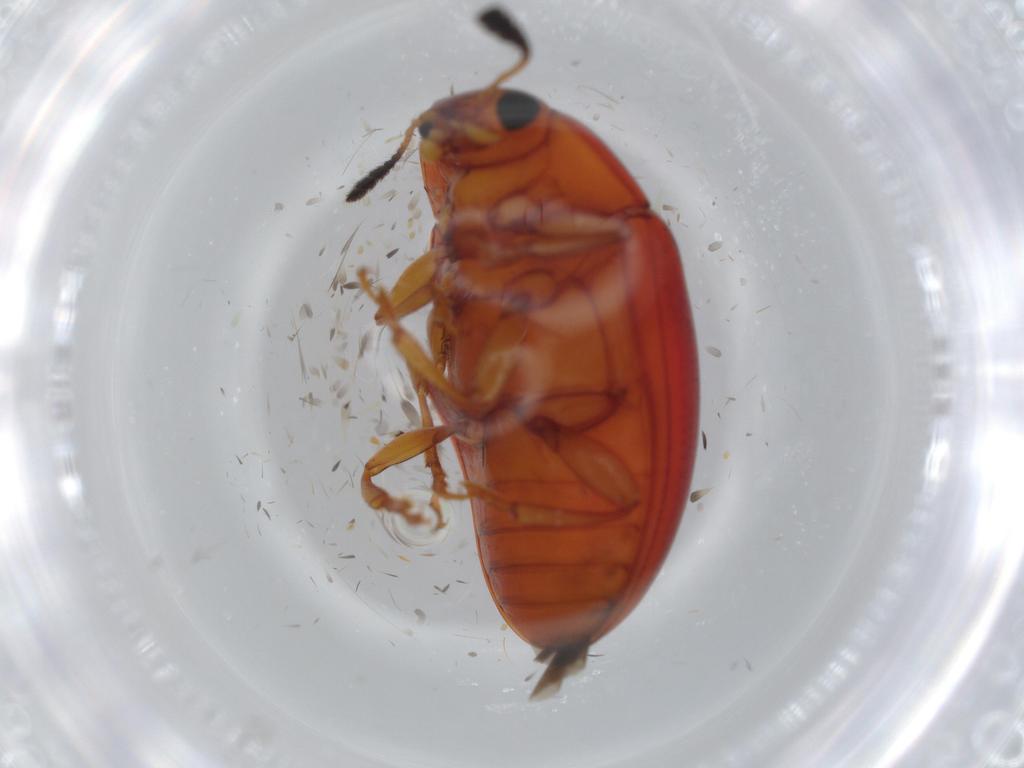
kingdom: Animalia
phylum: Arthropoda
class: Insecta
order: Coleoptera
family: Erotylidae
